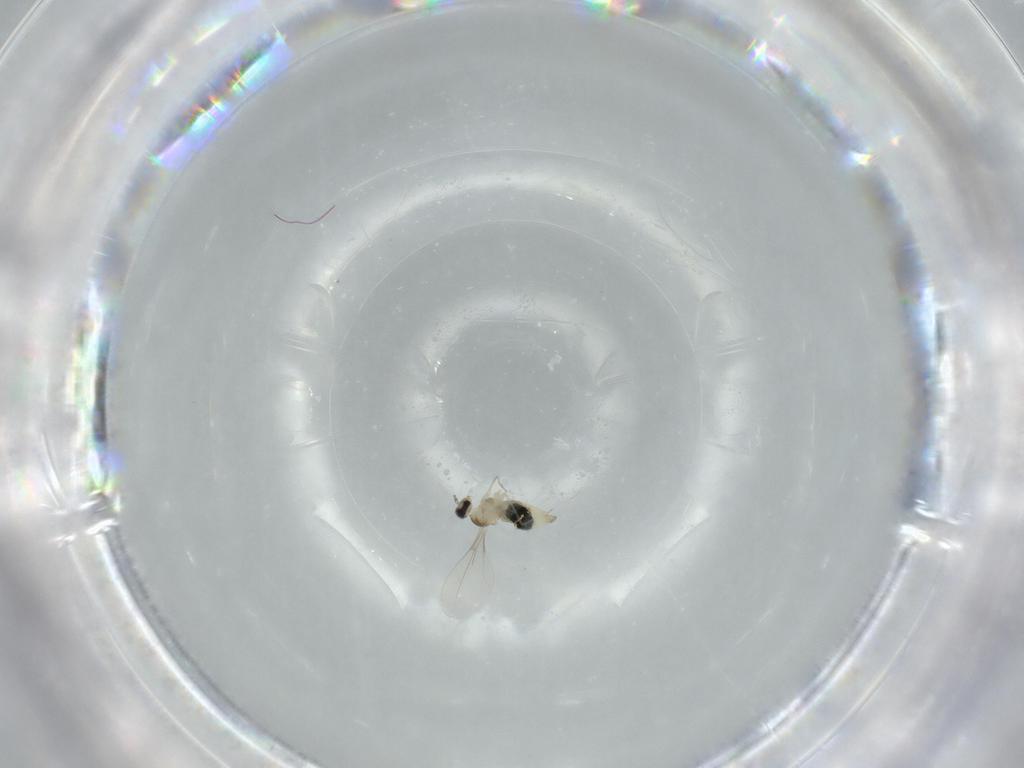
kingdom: Animalia
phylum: Arthropoda
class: Insecta
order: Diptera
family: Cecidomyiidae
